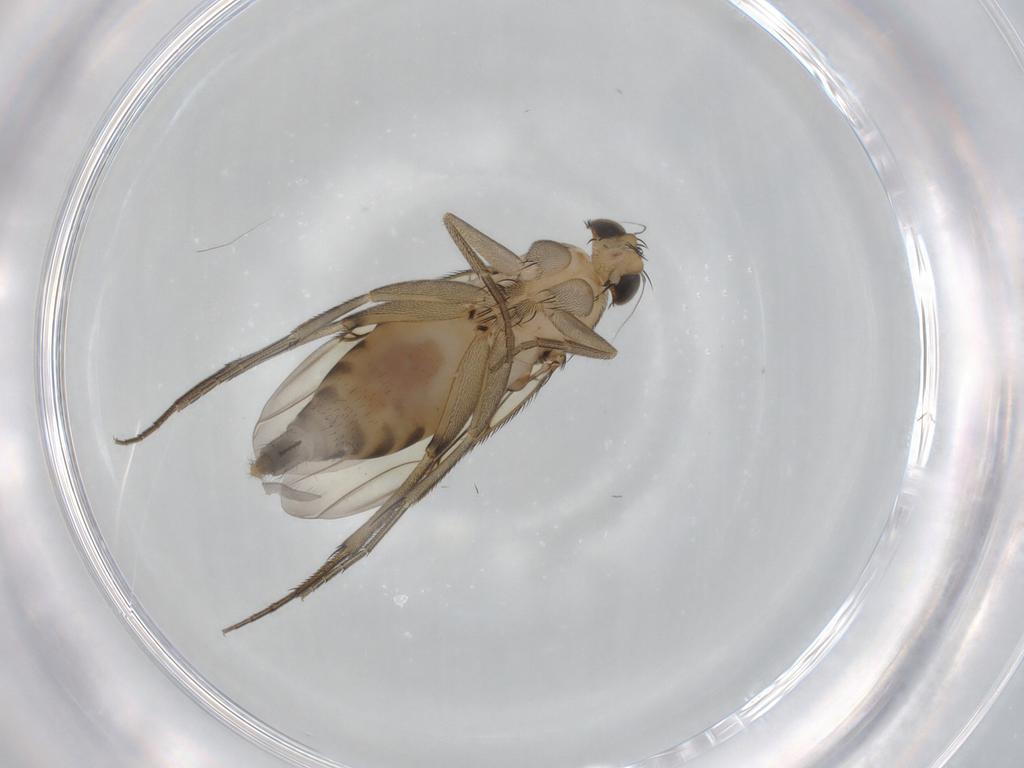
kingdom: Animalia
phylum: Arthropoda
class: Insecta
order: Diptera
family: Phoridae
